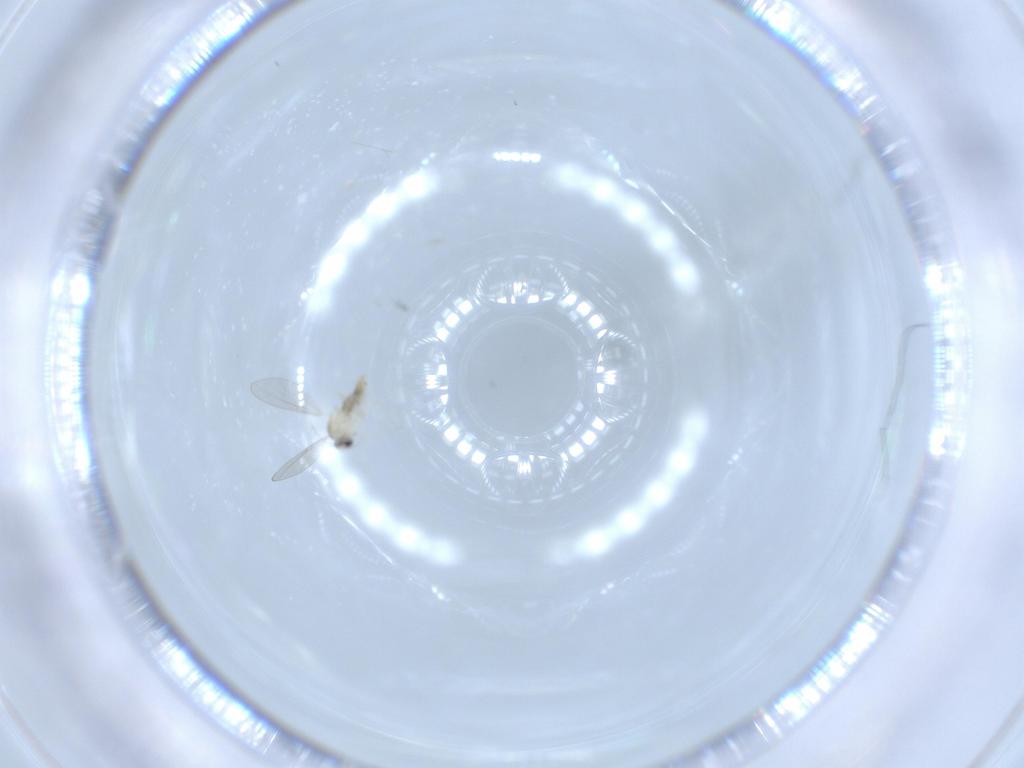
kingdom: Animalia
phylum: Arthropoda
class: Insecta
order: Diptera
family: Cecidomyiidae
